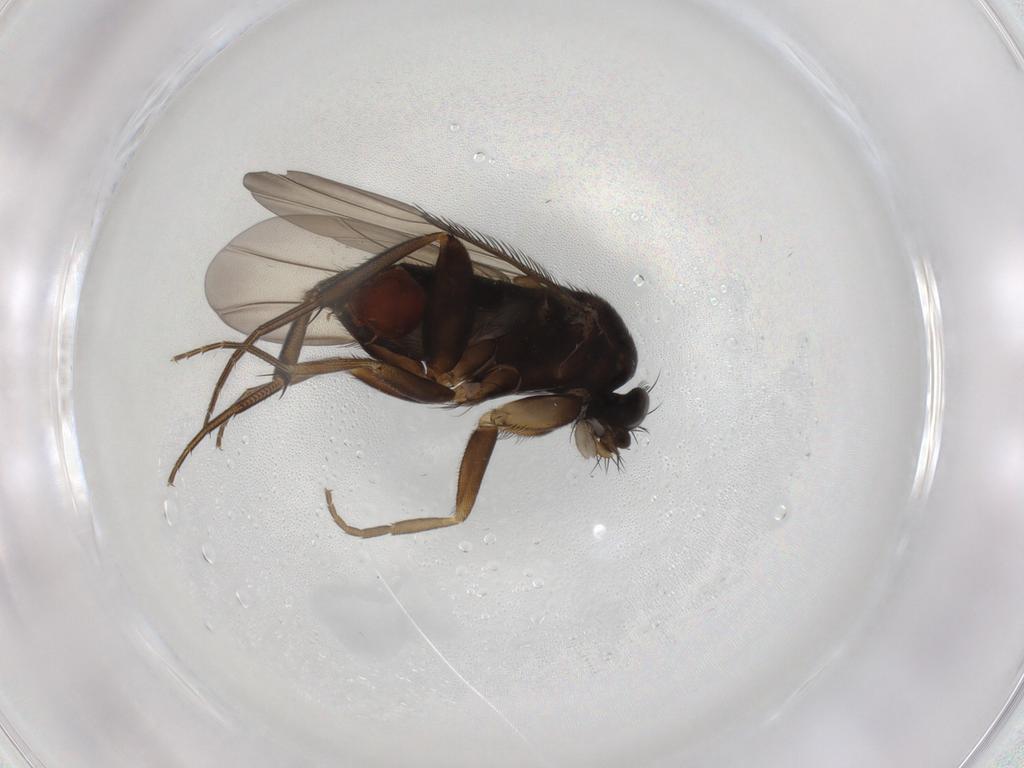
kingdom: Animalia
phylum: Arthropoda
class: Insecta
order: Diptera
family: Phoridae
